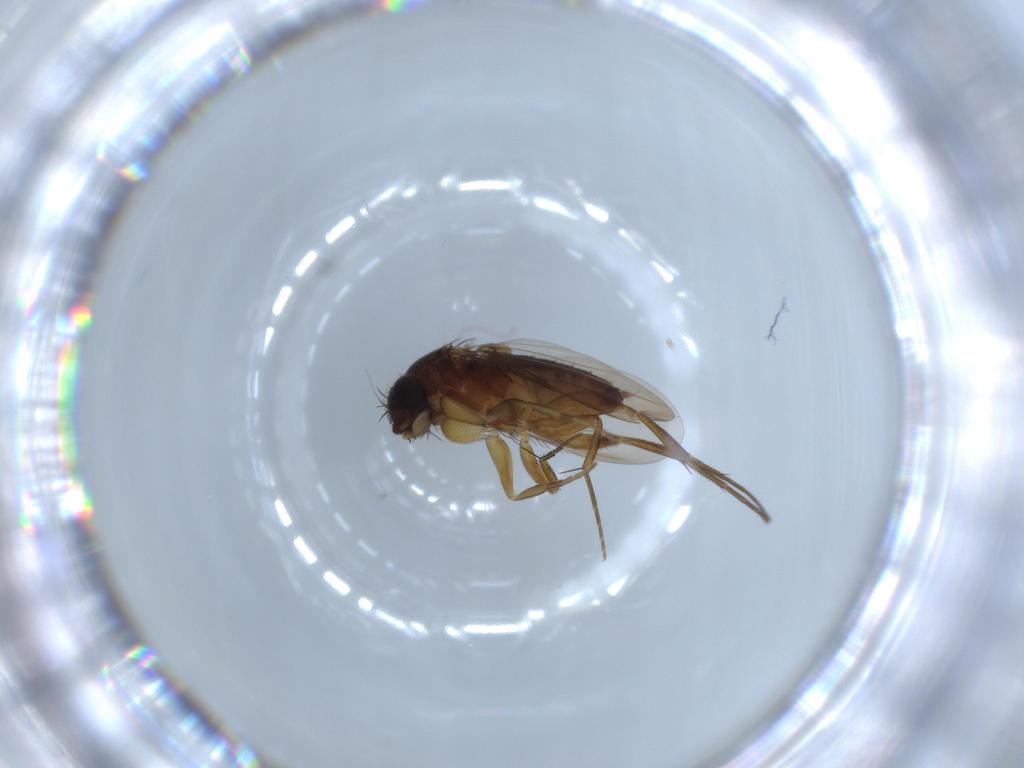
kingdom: Animalia
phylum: Arthropoda
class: Insecta
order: Diptera
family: Phoridae
